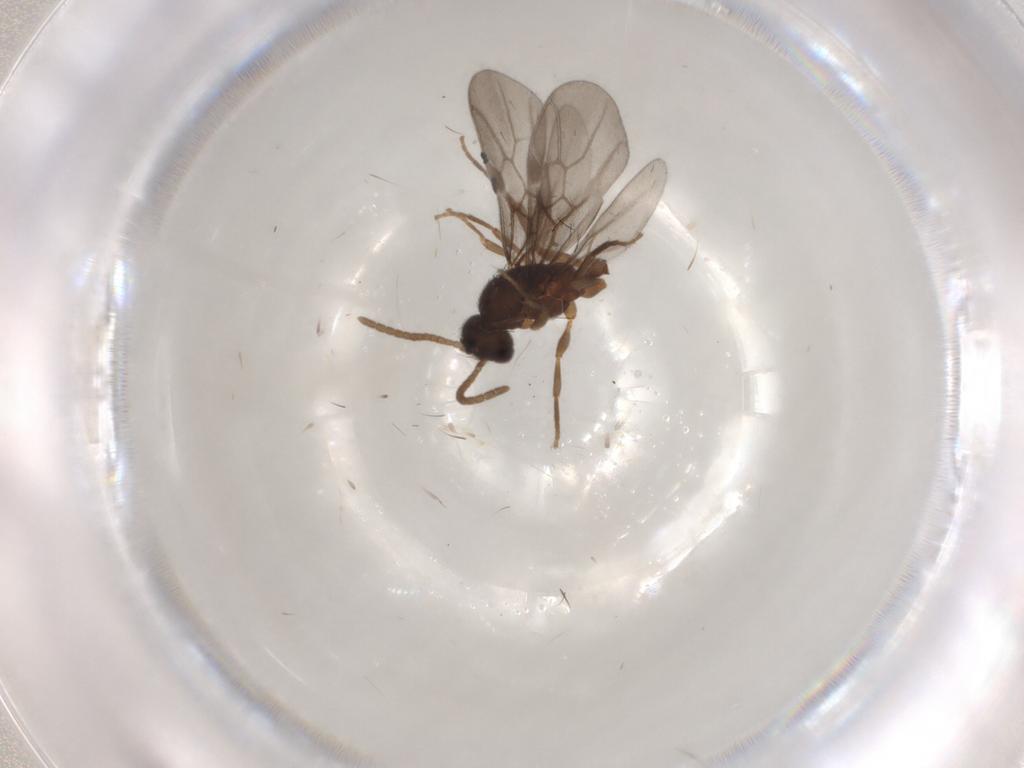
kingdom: Animalia
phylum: Arthropoda
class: Insecta
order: Hymenoptera
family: Formicidae
